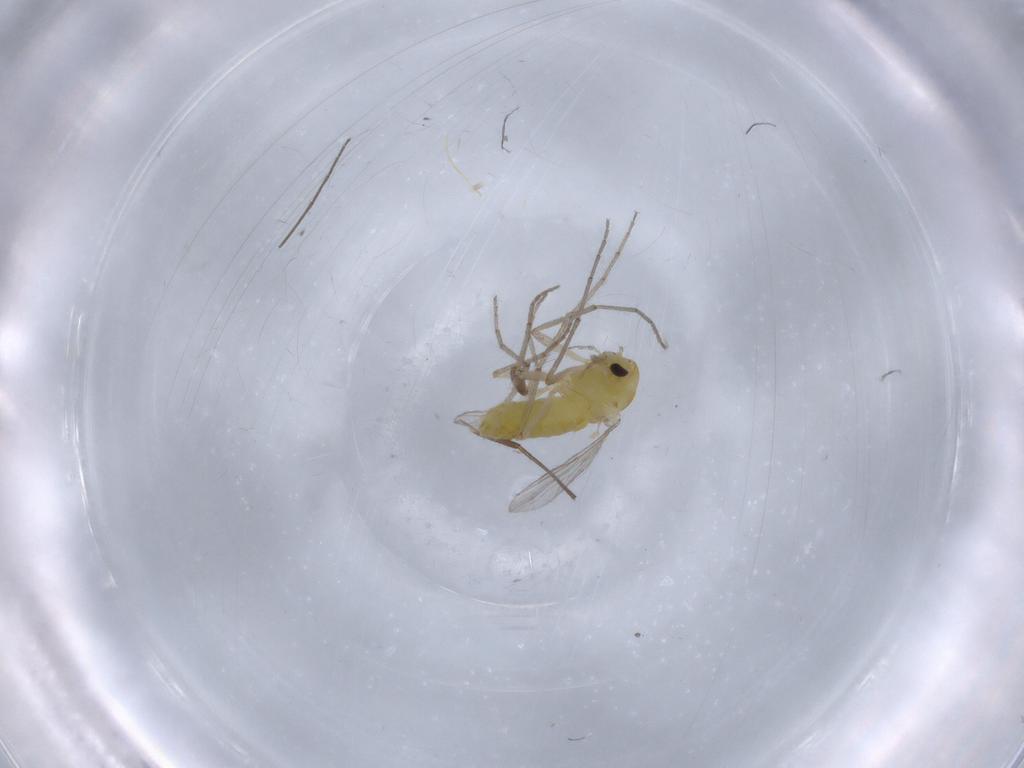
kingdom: Animalia
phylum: Arthropoda
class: Insecta
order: Diptera
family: Chironomidae
